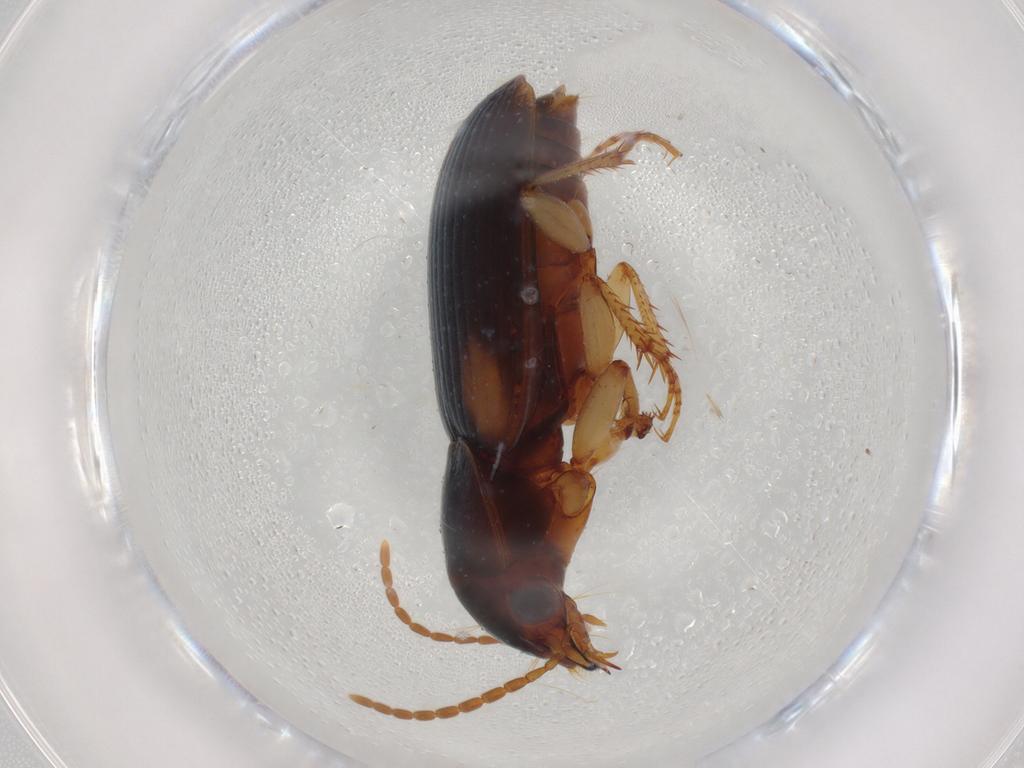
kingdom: Animalia
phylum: Arthropoda
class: Insecta
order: Coleoptera
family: Carabidae
